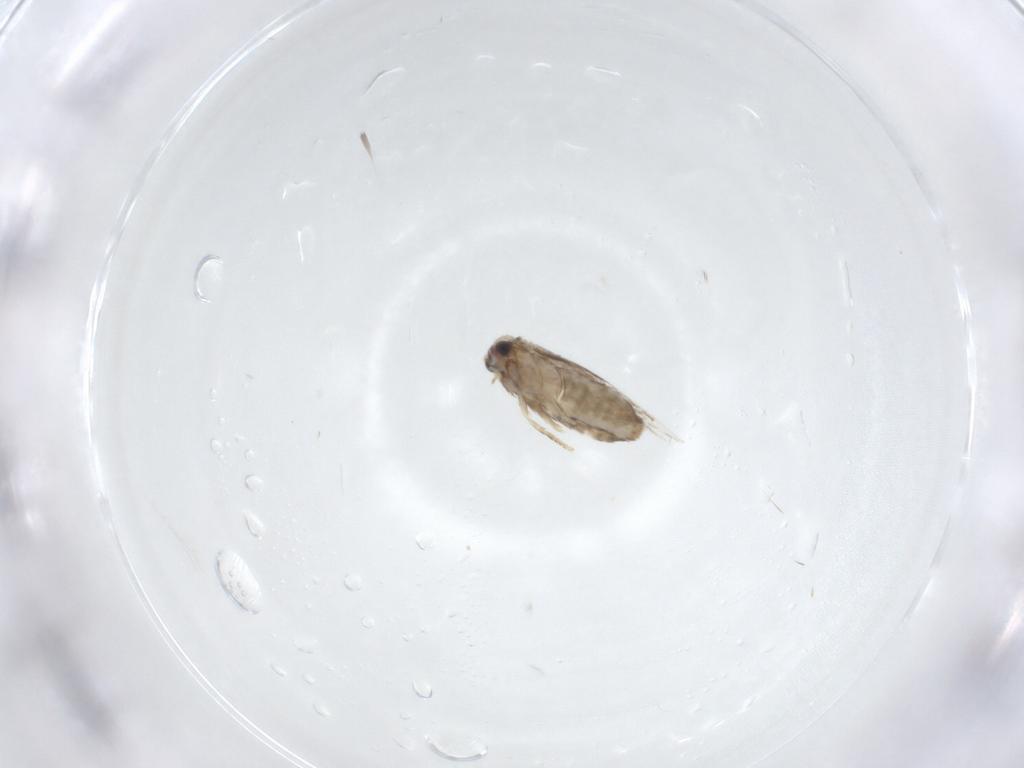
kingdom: Animalia
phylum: Arthropoda
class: Insecta
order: Lepidoptera
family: Nepticulidae
